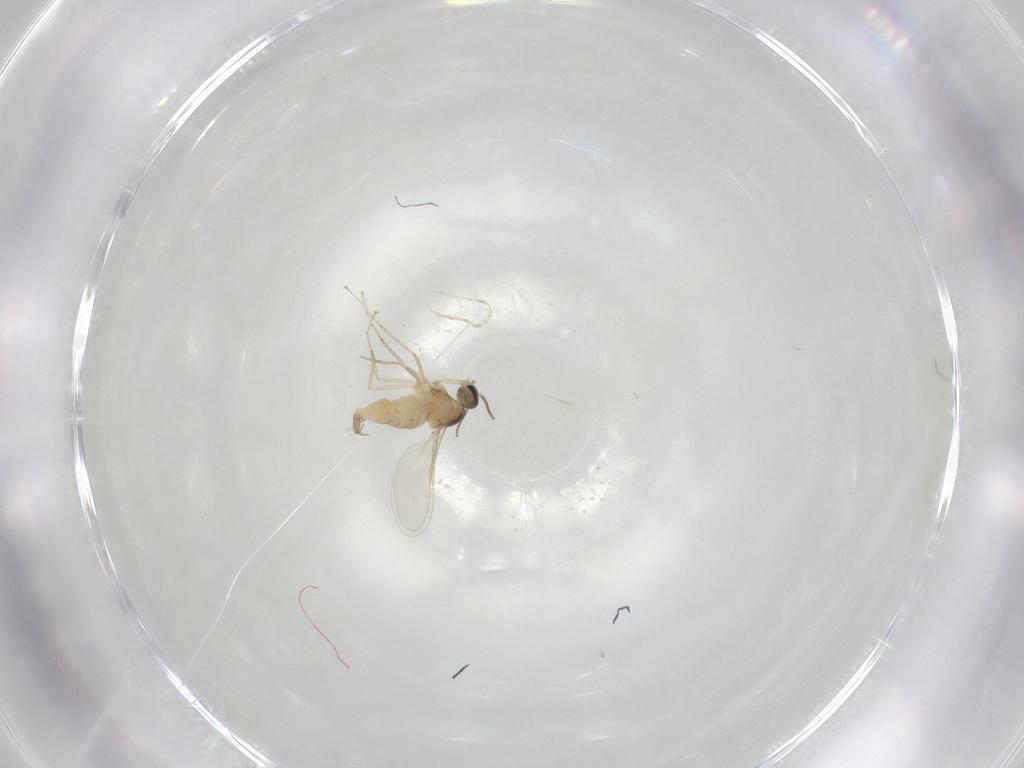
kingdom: Animalia
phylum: Arthropoda
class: Insecta
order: Diptera
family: Cecidomyiidae
